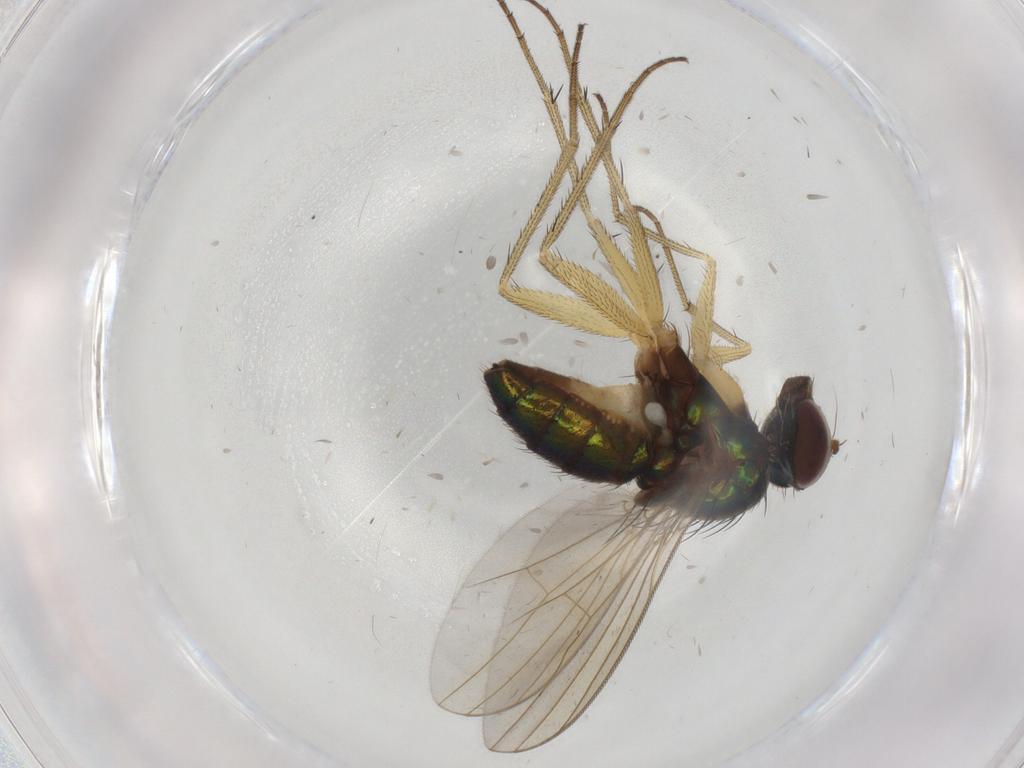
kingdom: Animalia
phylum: Arthropoda
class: Insecta
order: Diptera
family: Dolichopodidae
